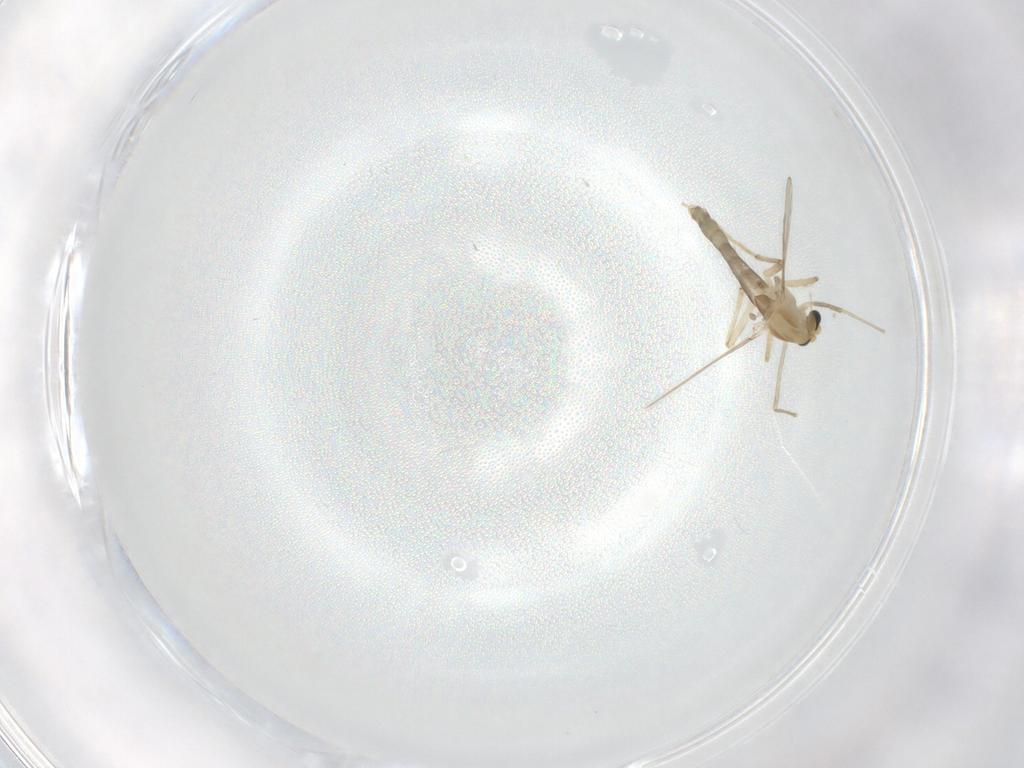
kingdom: Animalia
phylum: Arthropoda
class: Insecta
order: Diptera
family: Chironomidae
